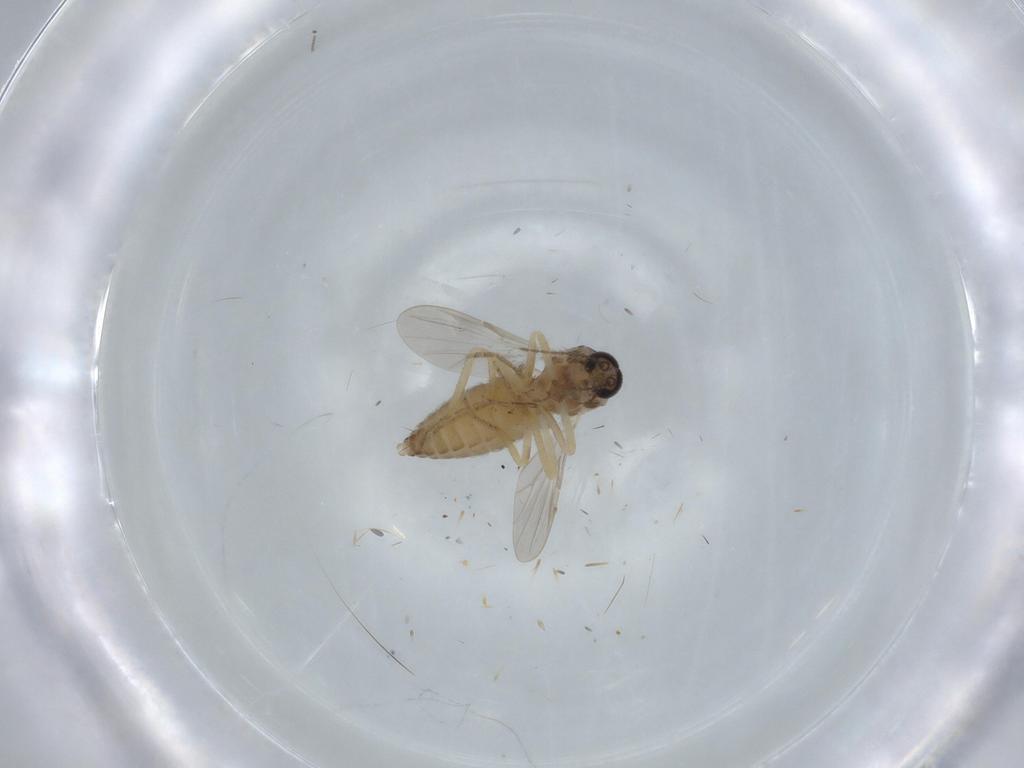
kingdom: Animalia
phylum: Arthropoda
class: Insecta
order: Diptera
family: Ceratopogonidae
